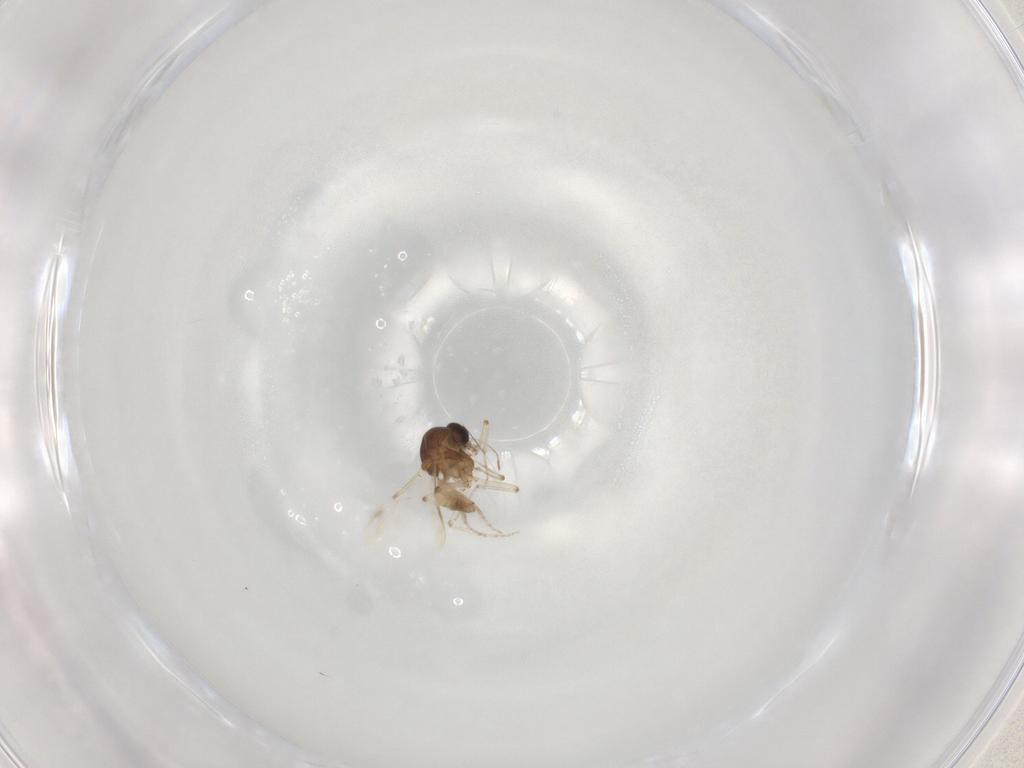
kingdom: Animalia
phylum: Arthropoda
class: Insecta
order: Diptera
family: Ceratopogonidae
